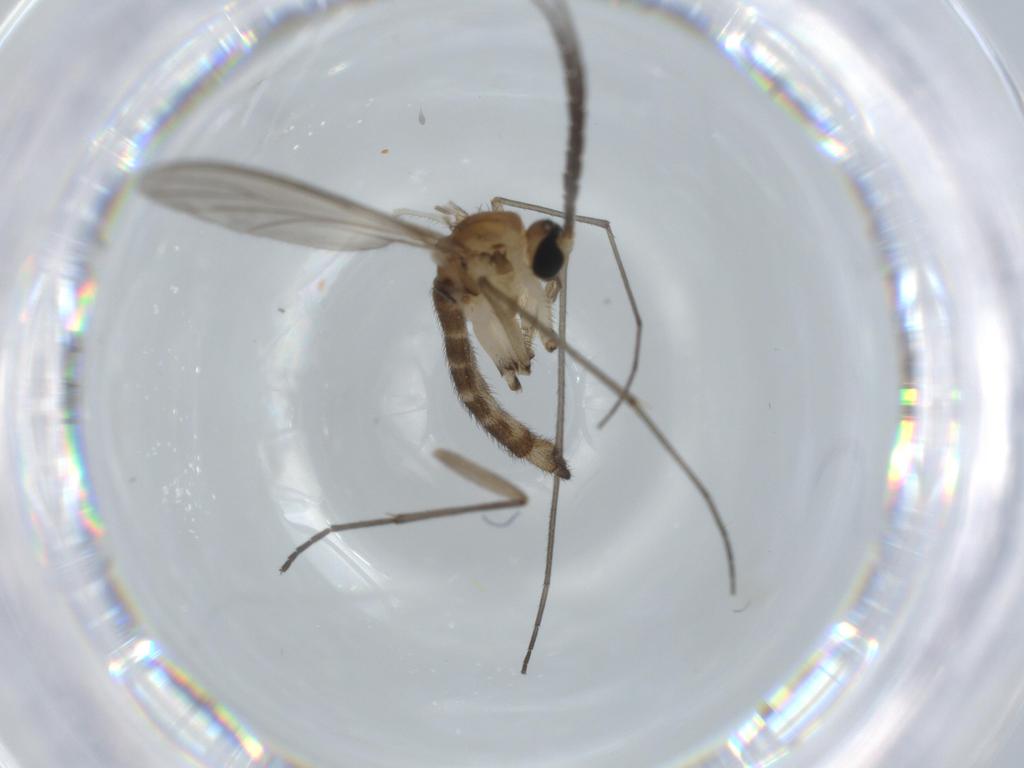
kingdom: Animalia
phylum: Arthropoda
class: Insecta
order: Diptera
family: Sciaridae
